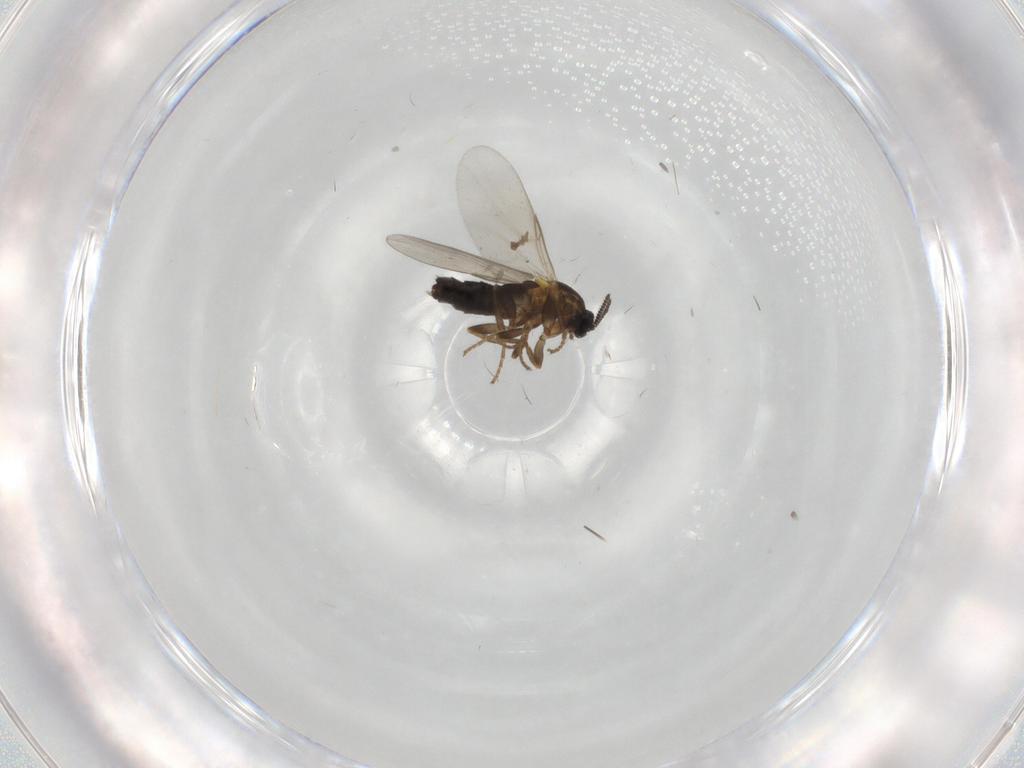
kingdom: Animalia
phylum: Arthropoda
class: Insecta
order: Diptera
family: Scatopsidae
